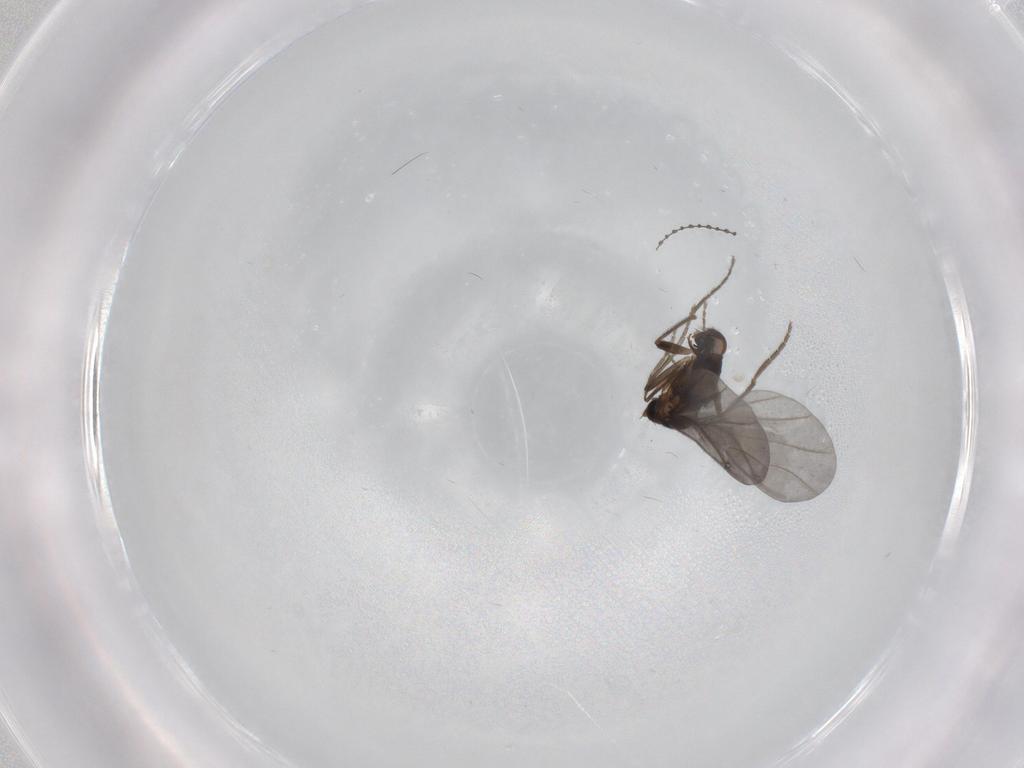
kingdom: Animalia
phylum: Arthropoda
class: Insecta
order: Diptera
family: Phoridae
